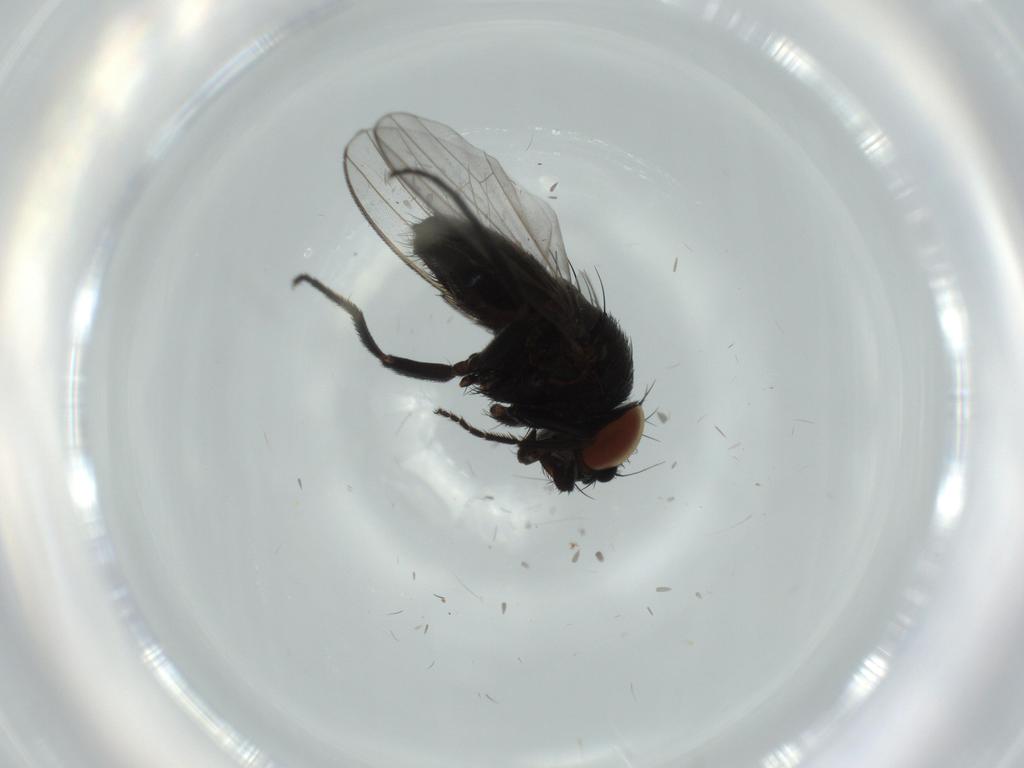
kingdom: Animalia
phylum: Arthropoda
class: Insecta
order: Diptera
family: Milichiidae
